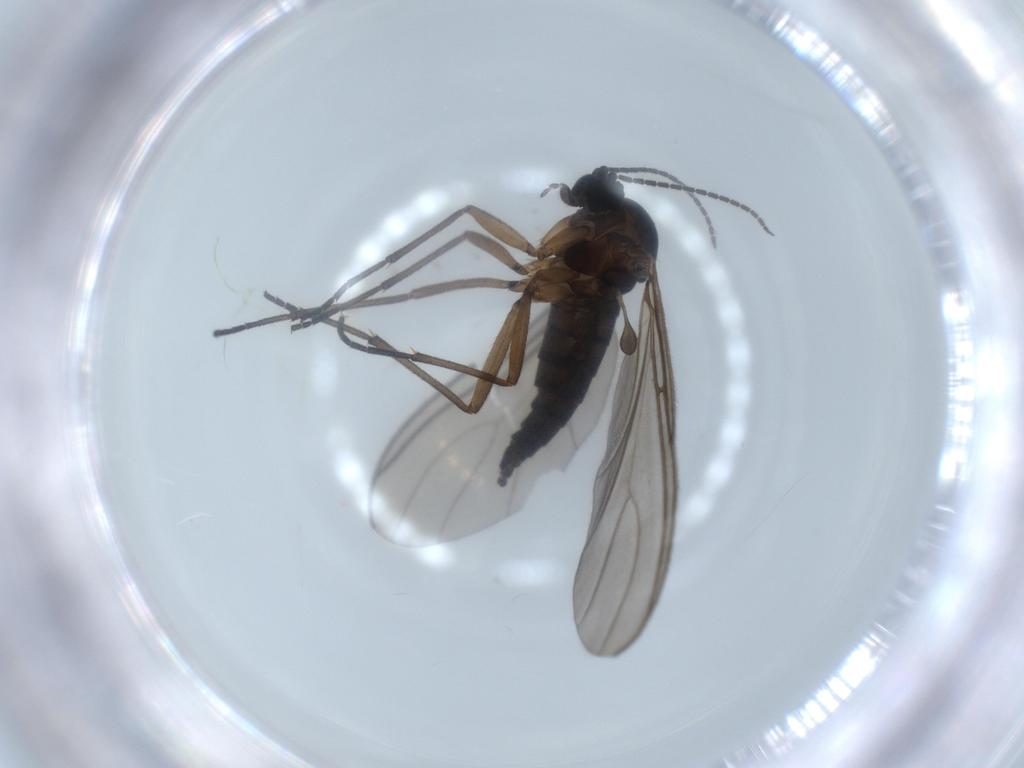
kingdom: Animalia
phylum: Arthropoda
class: Insecta
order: Diptera
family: Sciaridae
